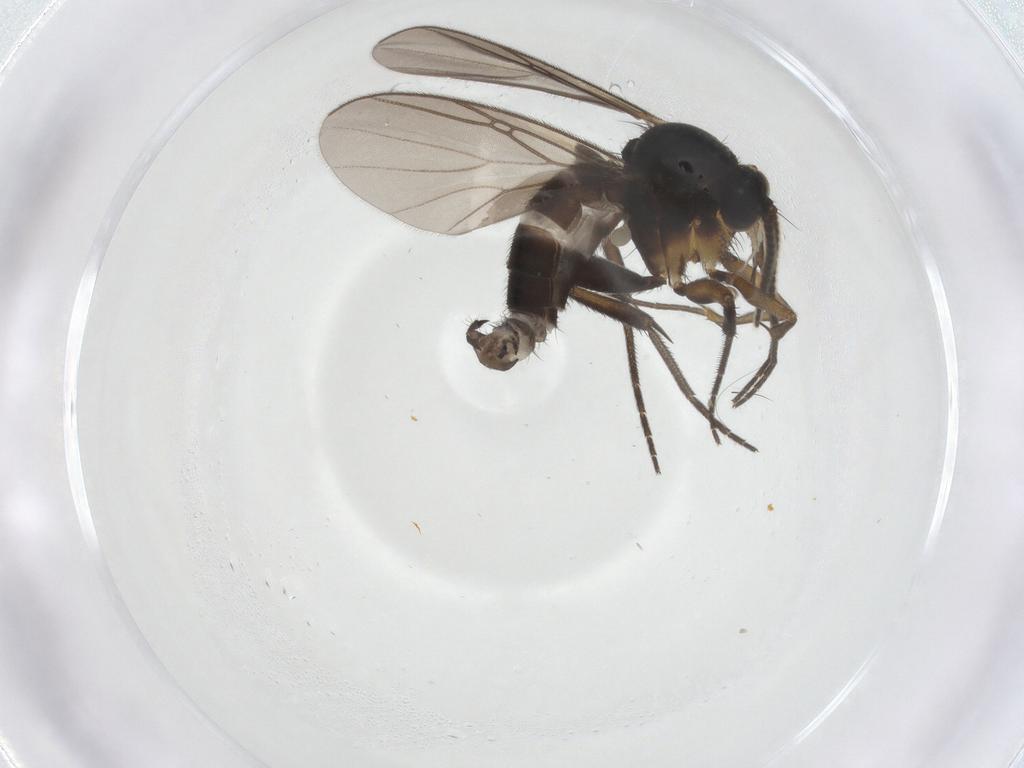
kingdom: Animalia
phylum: Arthropoda
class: Insecta
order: Diptera
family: Mycetophilidae
